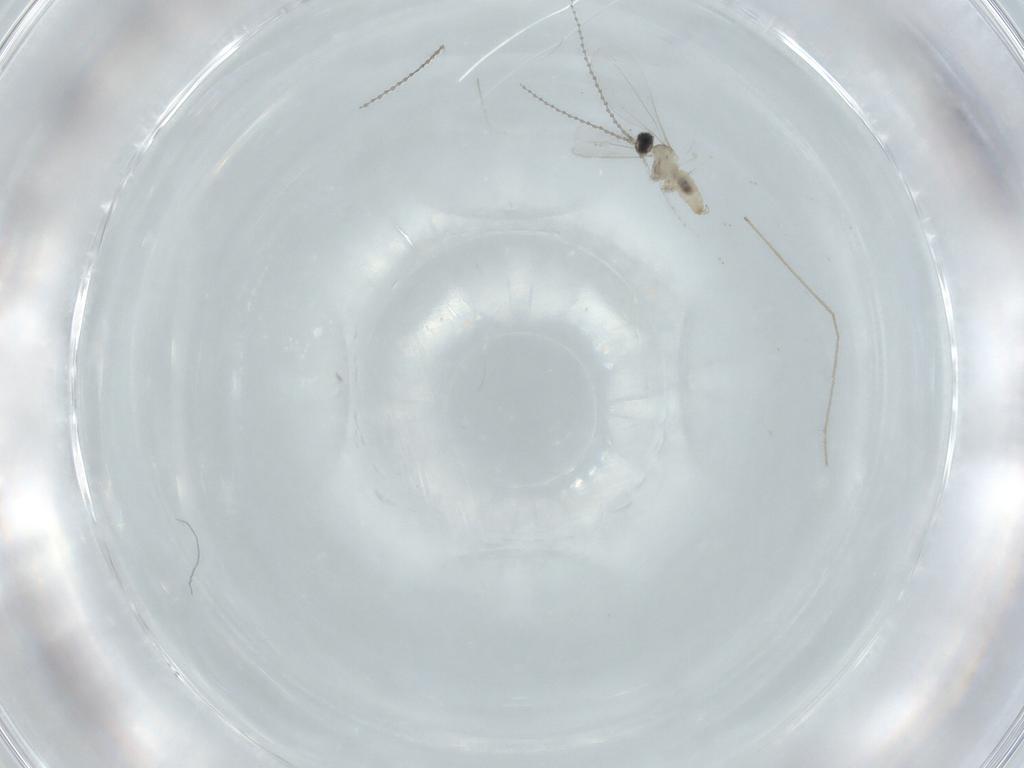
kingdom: Animalia
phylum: Arthropoda
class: Insecta
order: Diptera
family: Cecidomyiidae
